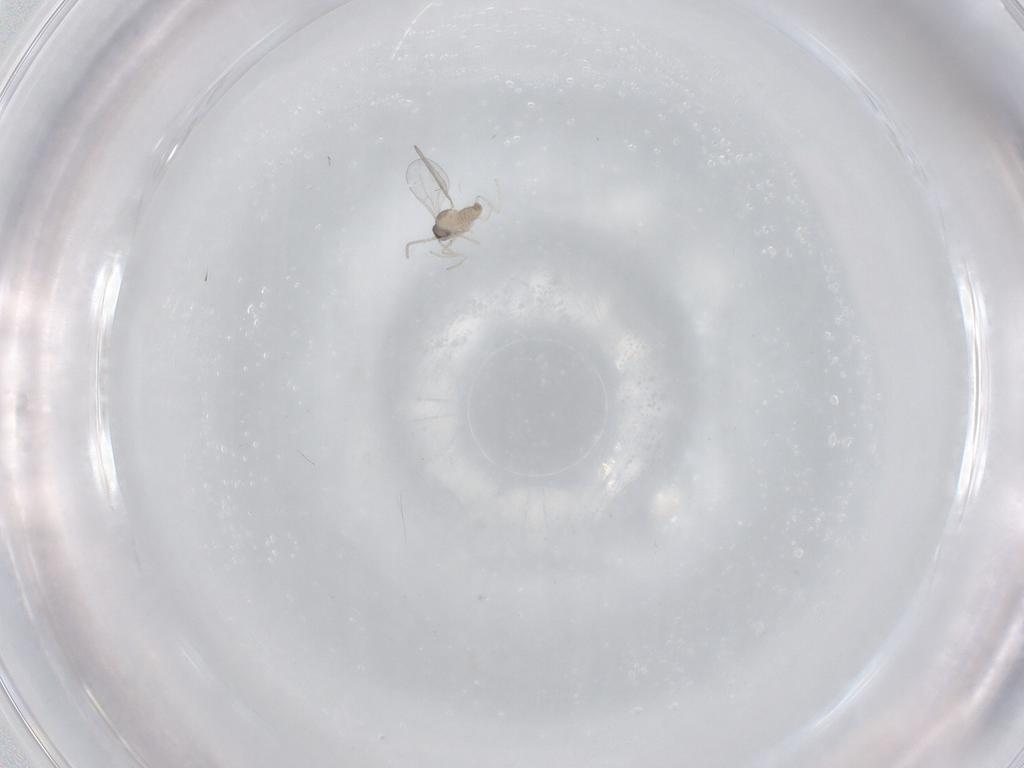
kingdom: Animalia
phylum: Arthropoda
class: Insecta
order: Diptera
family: Cecidomyiidae
